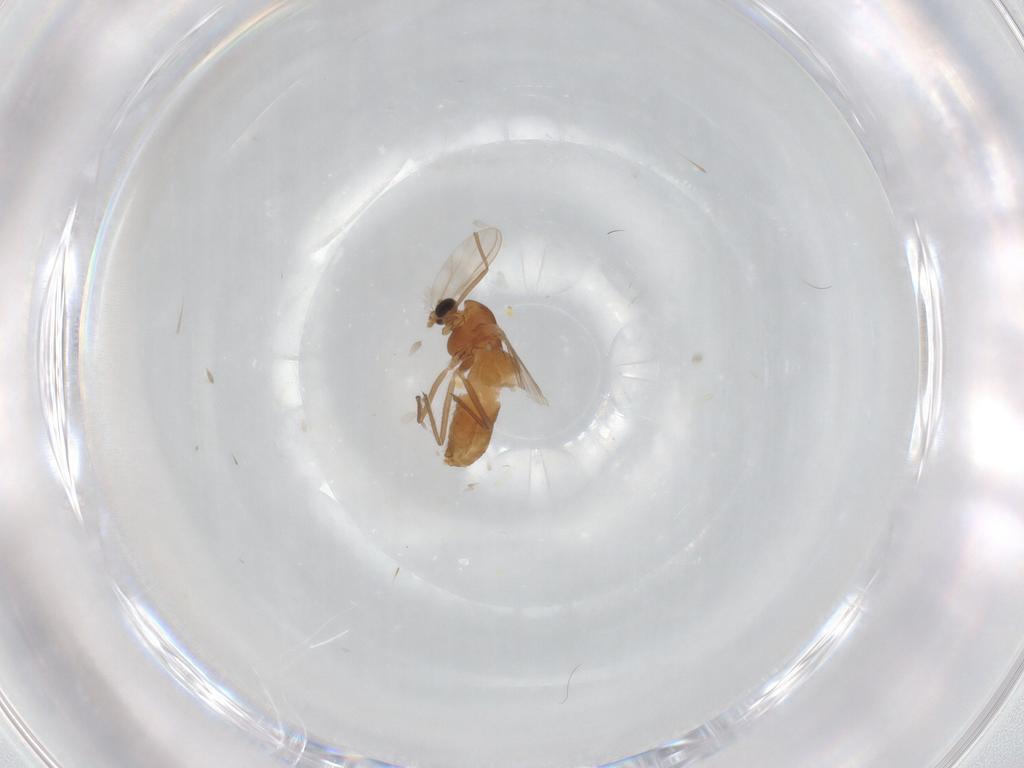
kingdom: Animalia
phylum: Arthropoda
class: Insecta
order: Diptera
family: Chironomidae
